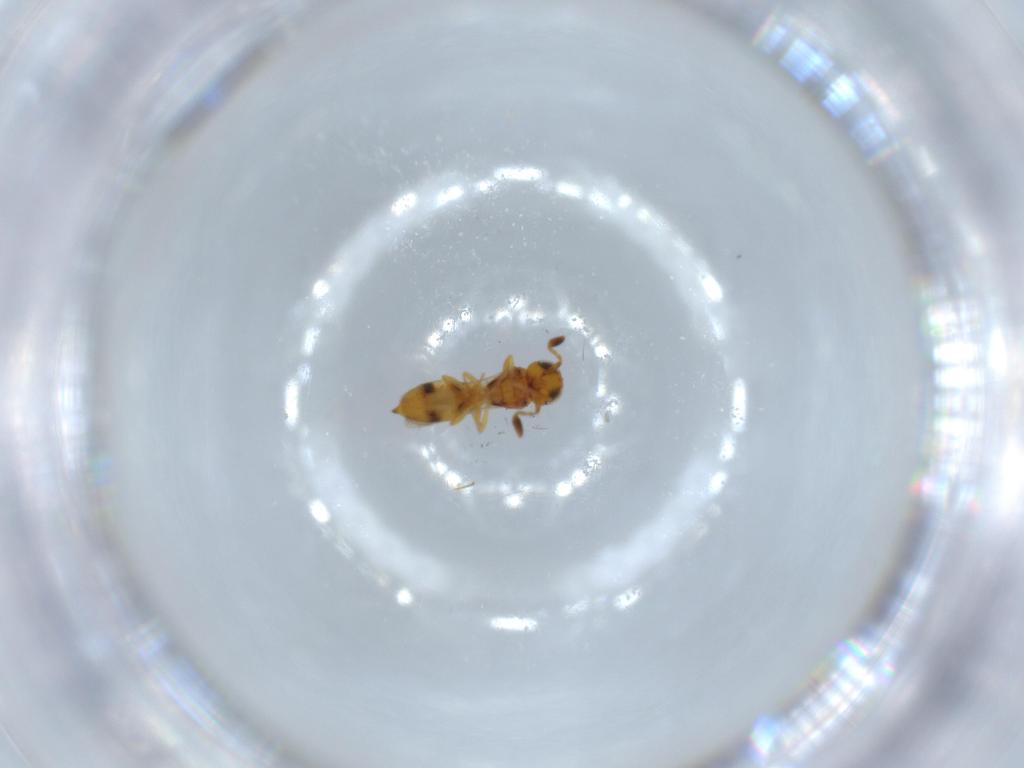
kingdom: Animalia
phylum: Arthropoda
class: Insecta
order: Hymenoptera
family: Scelionidae
